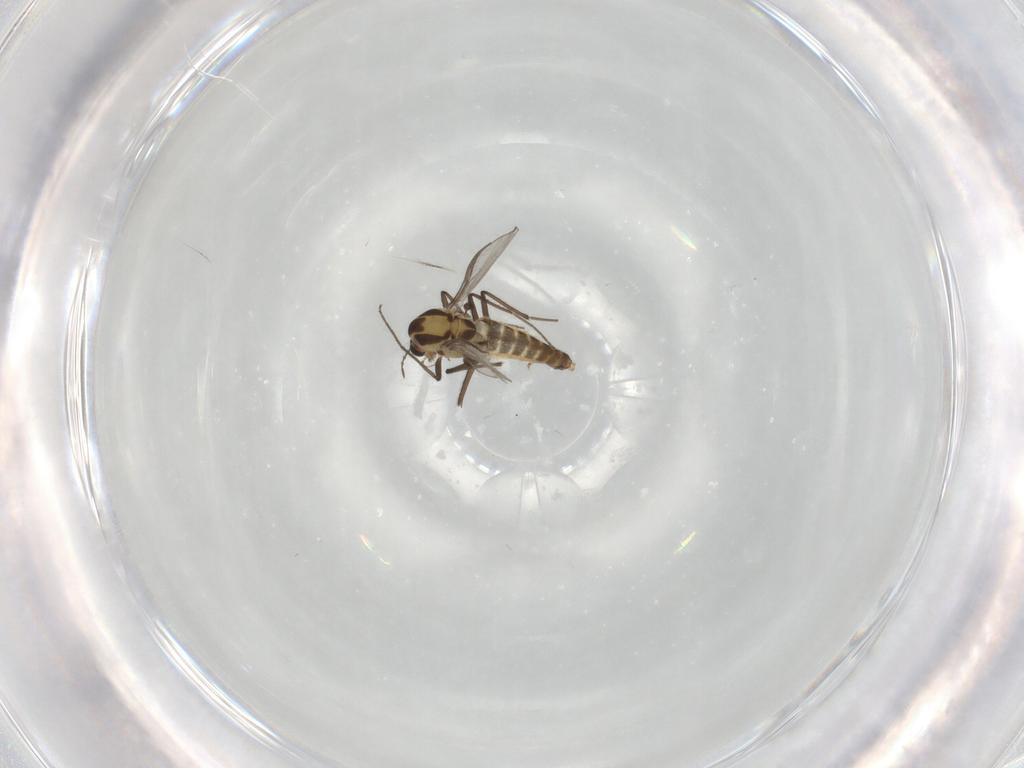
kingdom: Animalia
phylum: Arthropoda
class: Insecta
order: Diptera
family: Chironomidae
